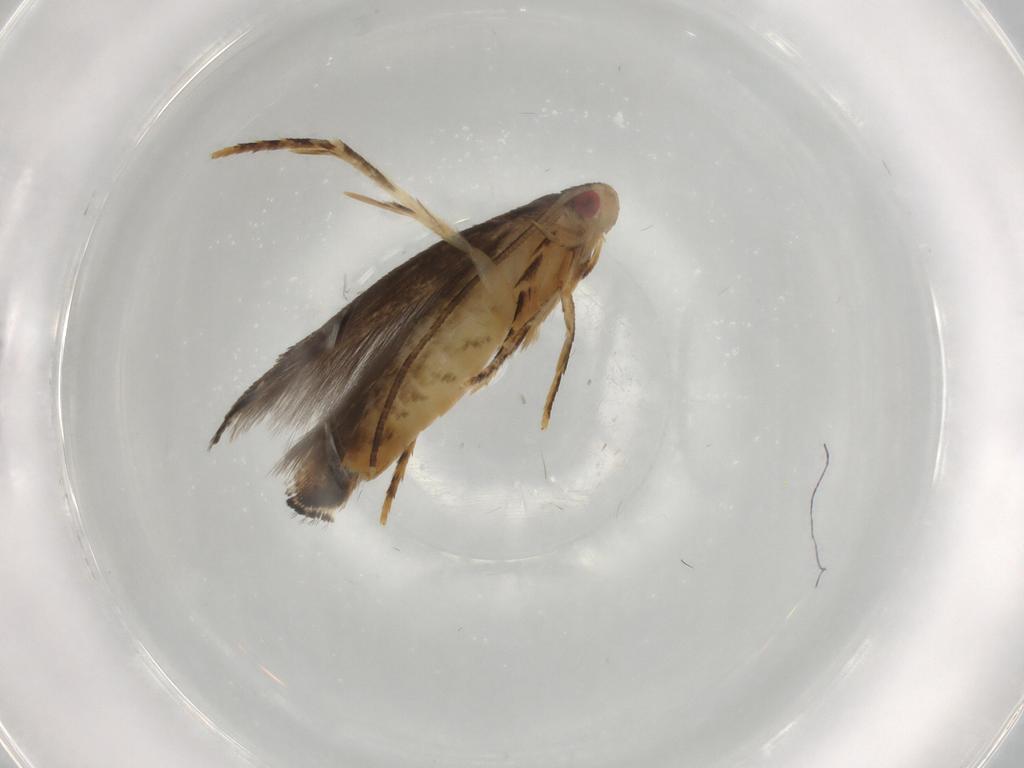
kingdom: Animalia
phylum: Arthropoda
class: Insecta
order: Lepidoptera
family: Momphidae
